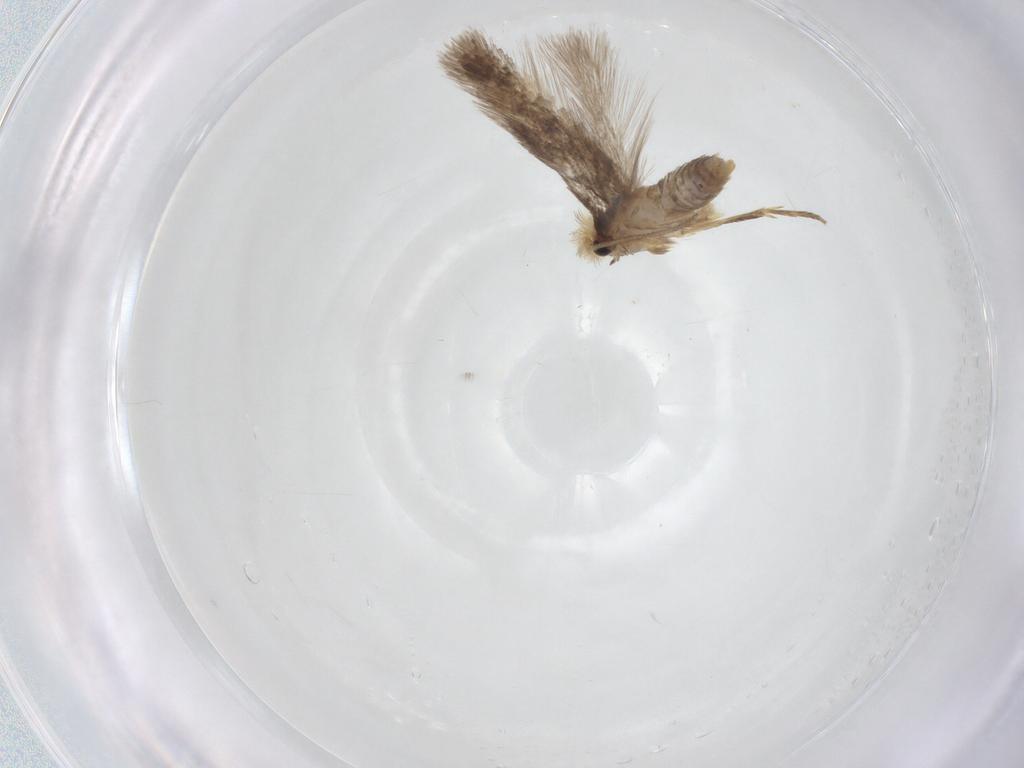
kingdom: Animalia
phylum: Arthropoda
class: Insecta
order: Lepidoptera
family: Nepticulidae
